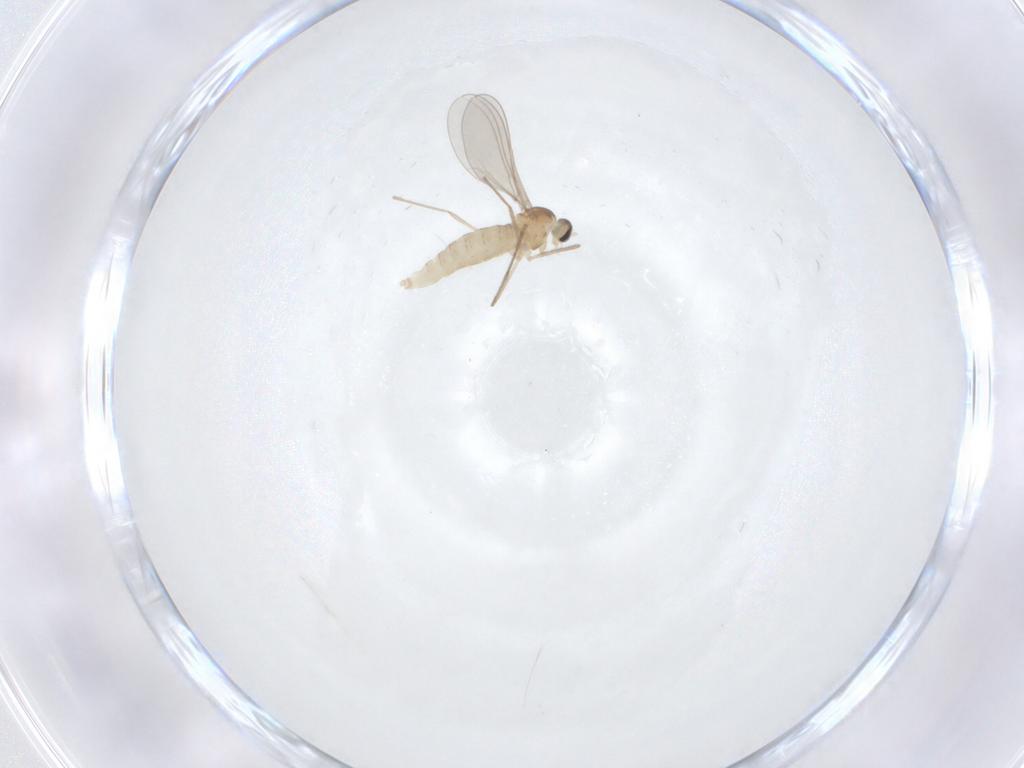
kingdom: Animalia
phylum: Arthropoda
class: Insecta
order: Diptera
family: Cecidomyiidae
